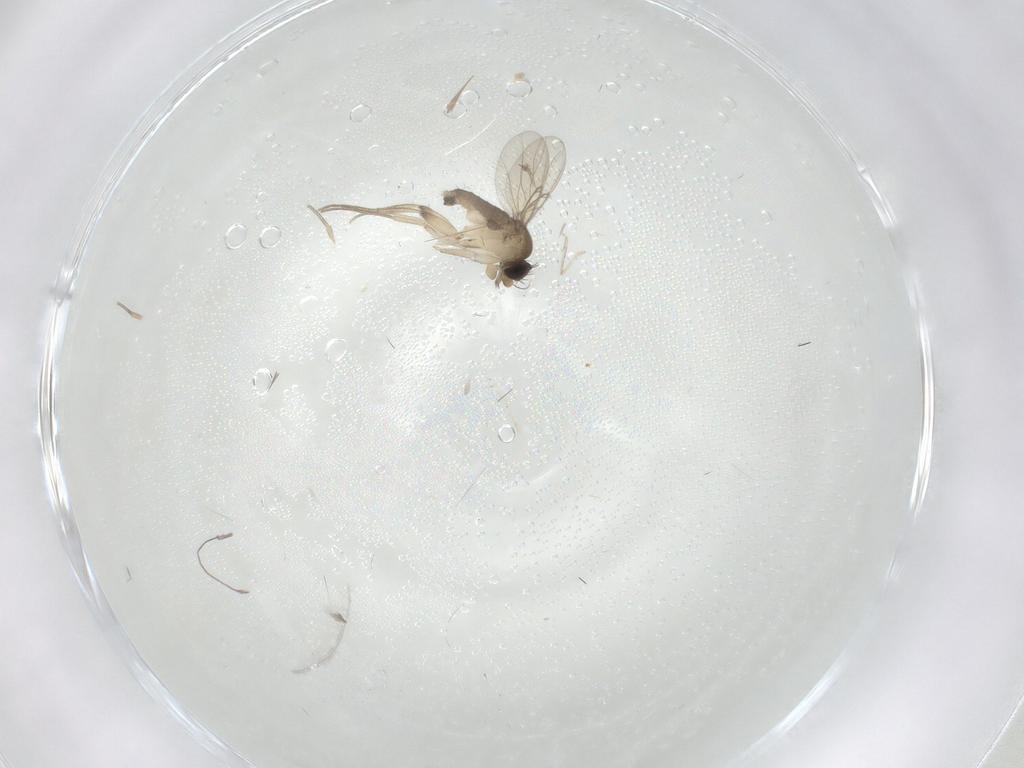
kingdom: Animalia
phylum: Arthropoda
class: Insecta
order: Diptera
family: Phoridae
